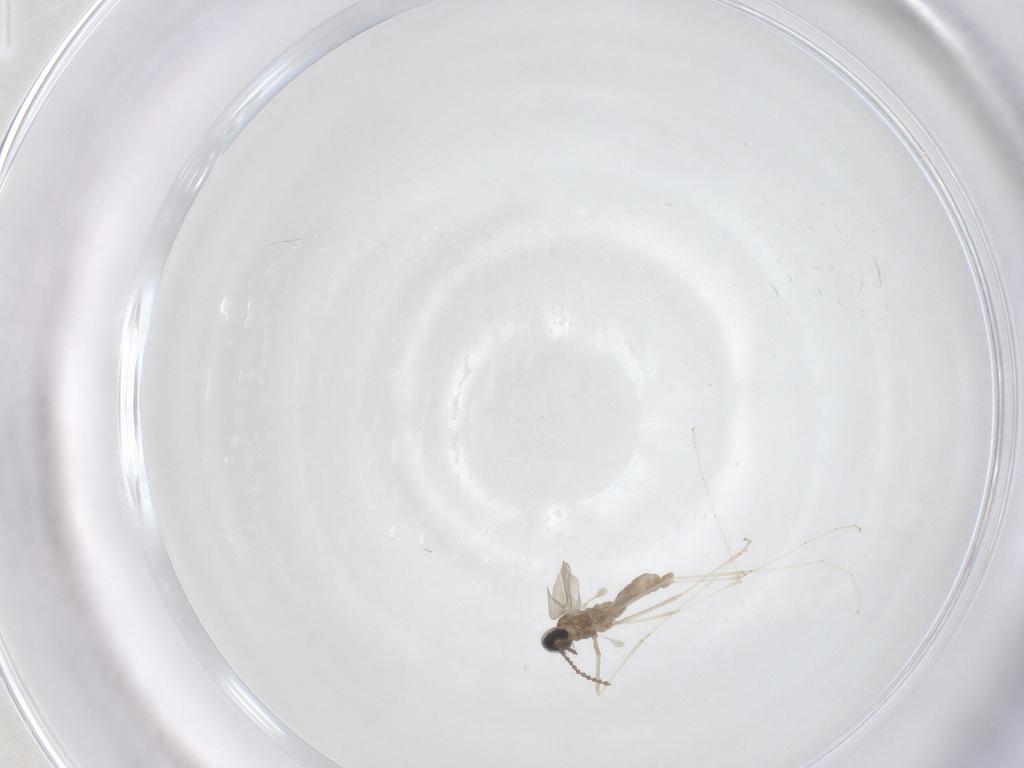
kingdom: Animalia
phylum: Arthropoda
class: Insecta
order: Diptera
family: Cecidomyiidae
